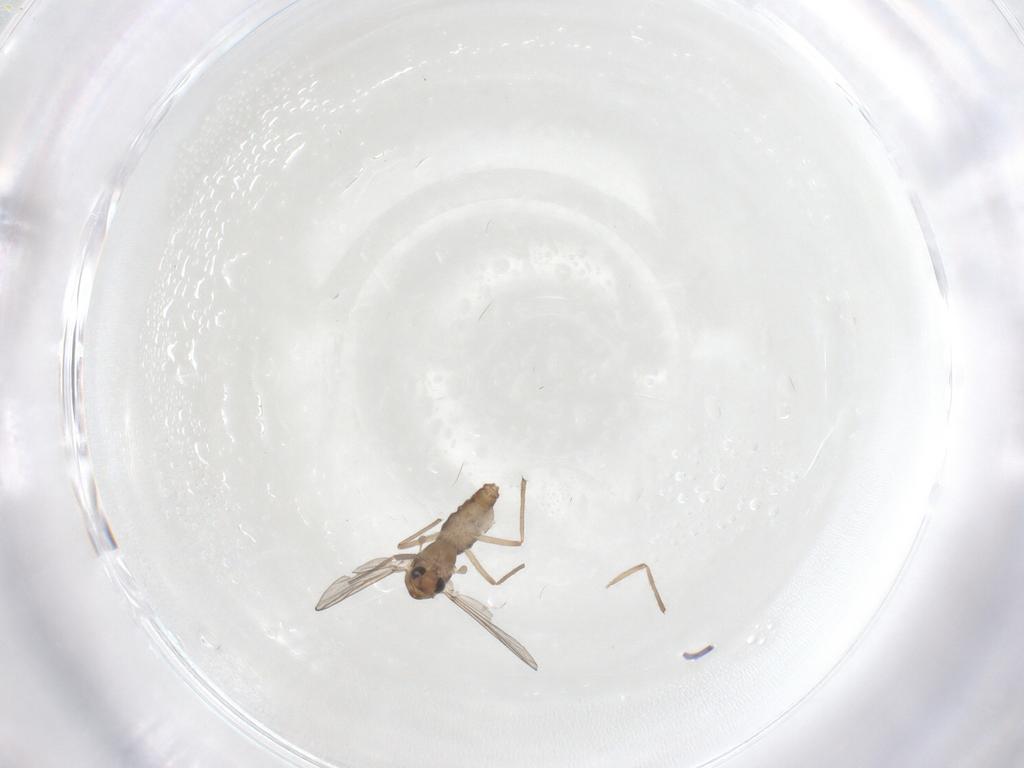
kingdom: Animalia
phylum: Arthropoda
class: Insecta
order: Diptera
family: Chironomidae
